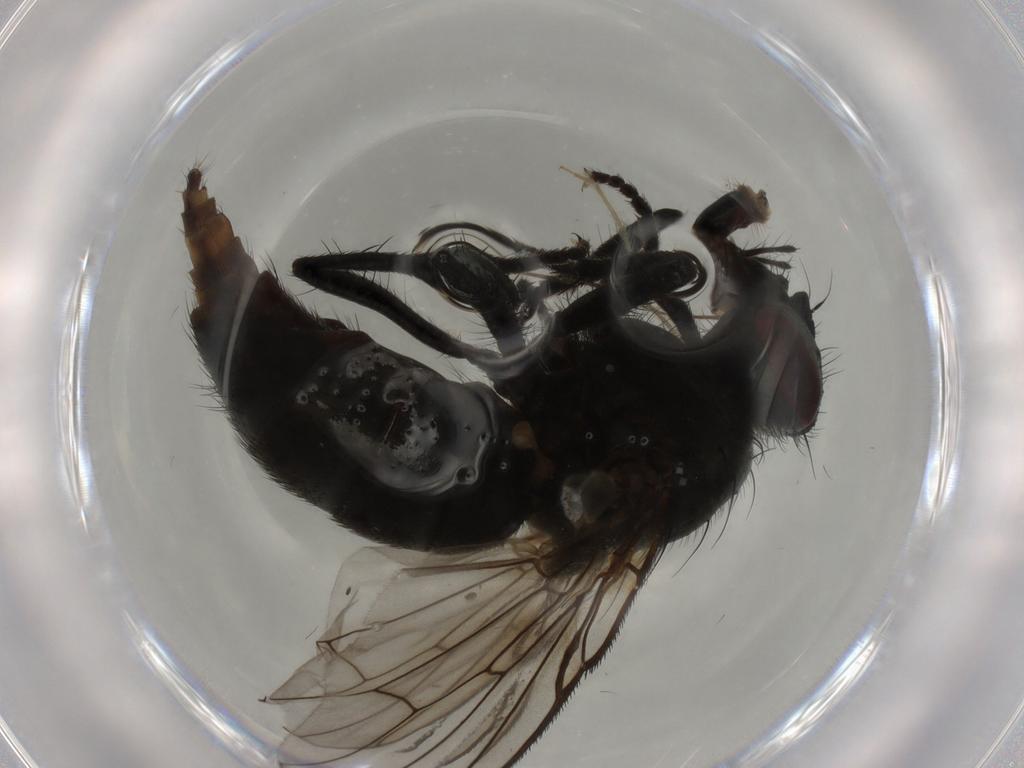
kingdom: Animalia
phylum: Arthropoda
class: Insecta
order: Diptera
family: Muscidae
